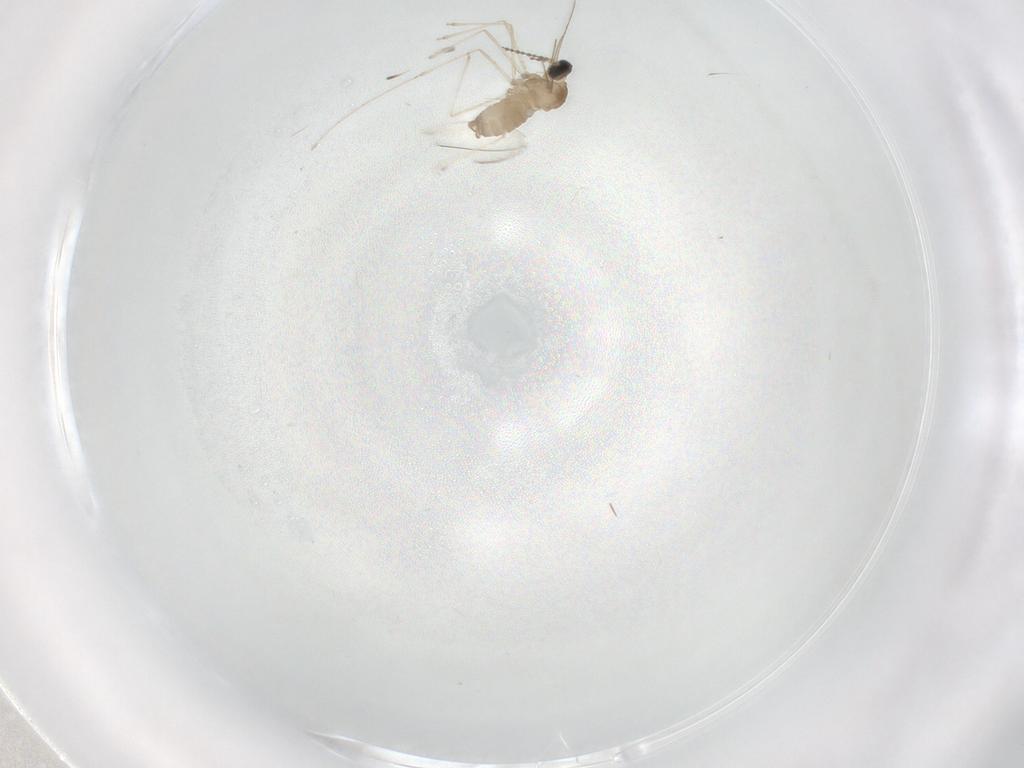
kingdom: Animalia
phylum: Arthropoda
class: Insecta
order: Diptera
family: Cecidomyiidae
